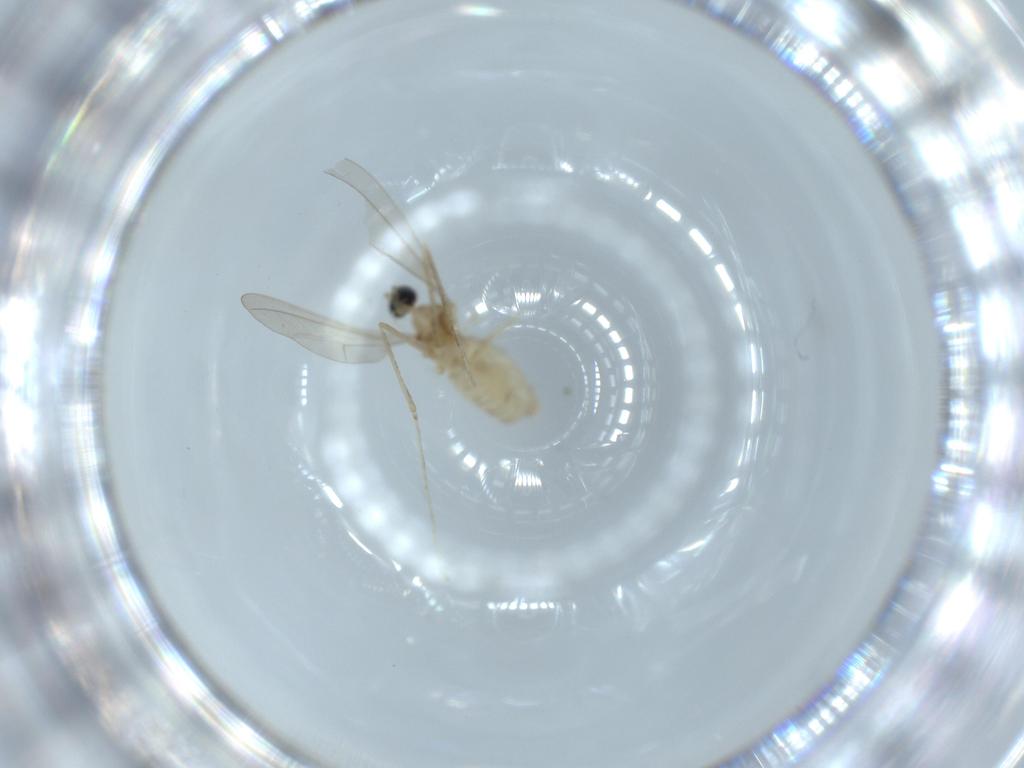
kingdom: Animalia
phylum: Arthropoda
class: Insecta
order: Diptera
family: Cecidomyiidae
